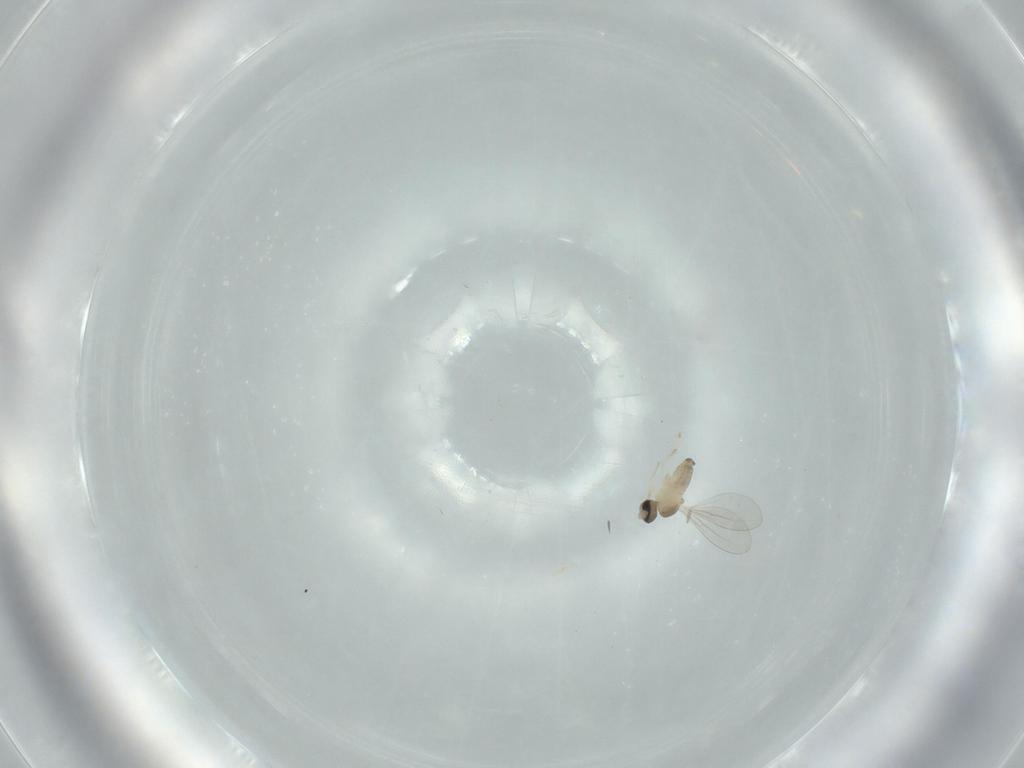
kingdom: Animalia
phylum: Arthropoda
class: Insecta
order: Diptera
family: Cecidomyiidae
